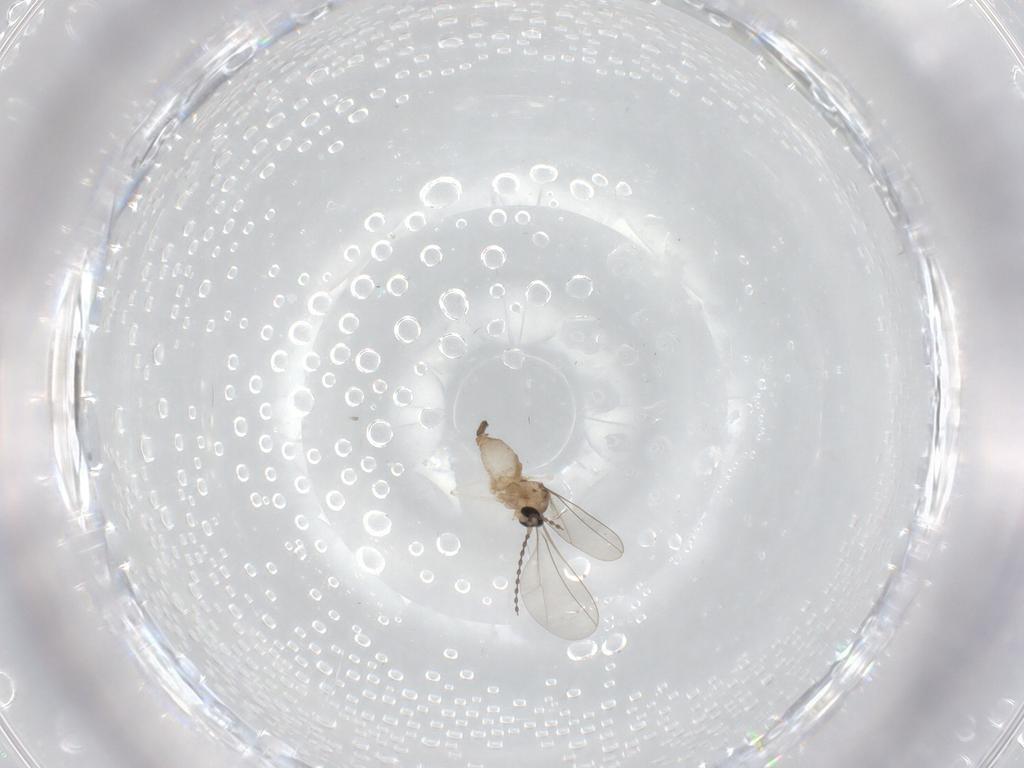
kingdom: Animalia
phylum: Arthropoda
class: Insecta
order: Diptera
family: Cecidomyiidae
